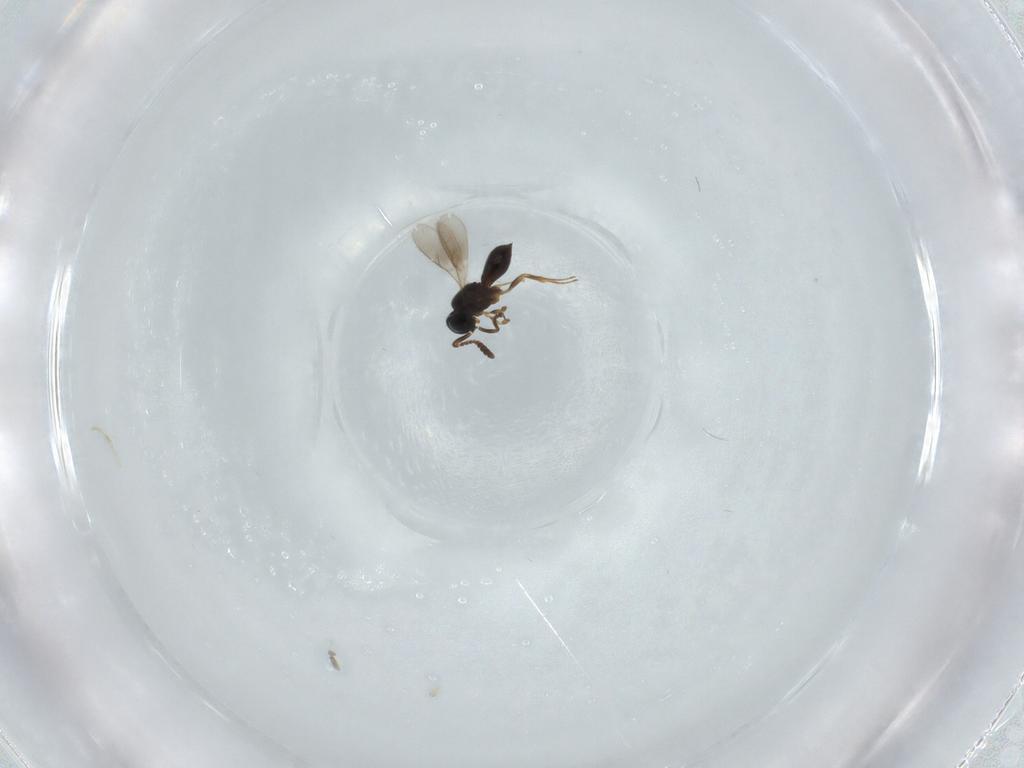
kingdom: Animalia
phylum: Arthropoda
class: Insecta
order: Hymenoptera
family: Scelionidae
